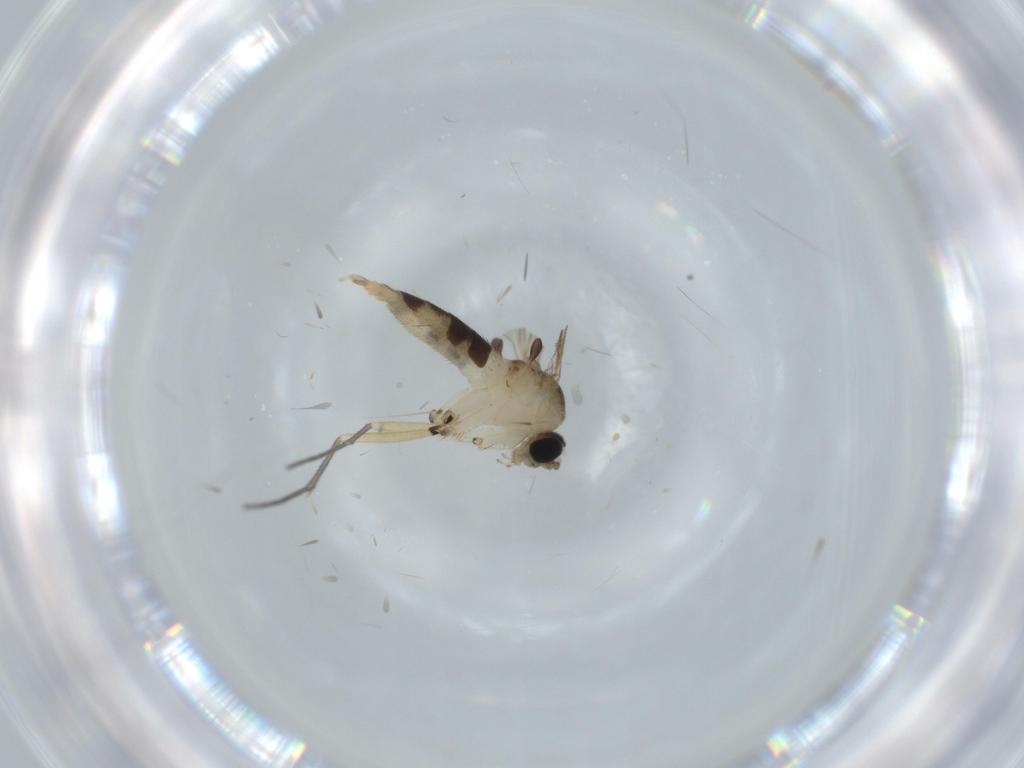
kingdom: Animalia
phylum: Arthropoda
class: Insecta
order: Diptera
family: Sciaridae
